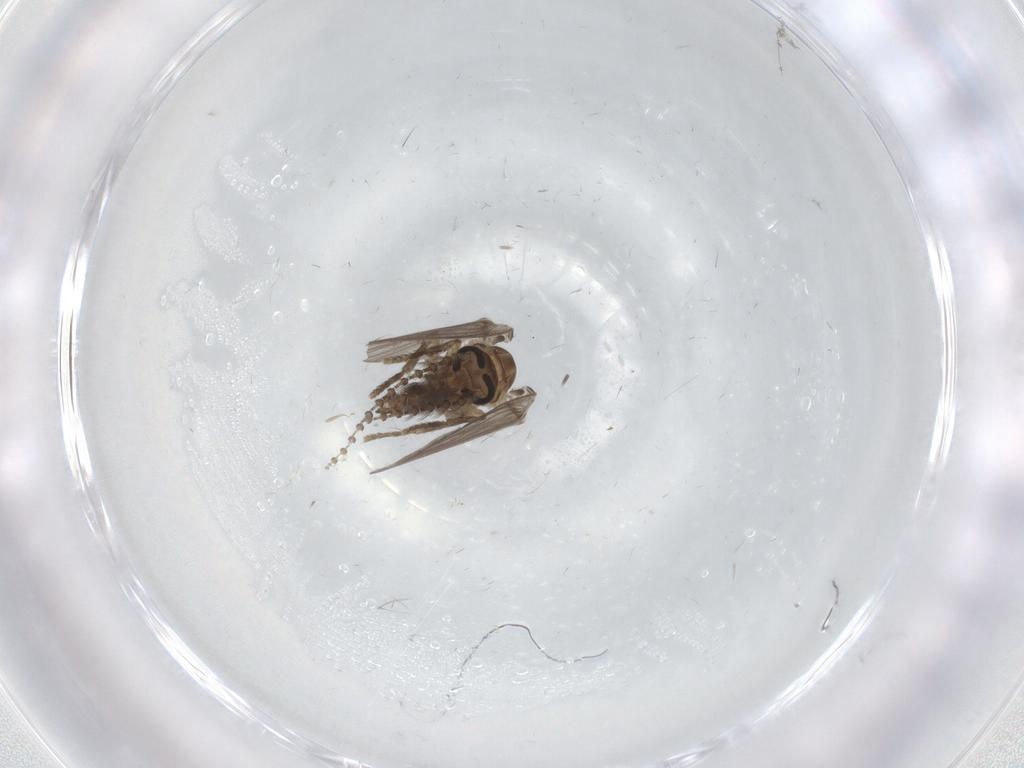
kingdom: Animalia
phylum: Arthropoda
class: Insecta
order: Diptera
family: Psychodidae
